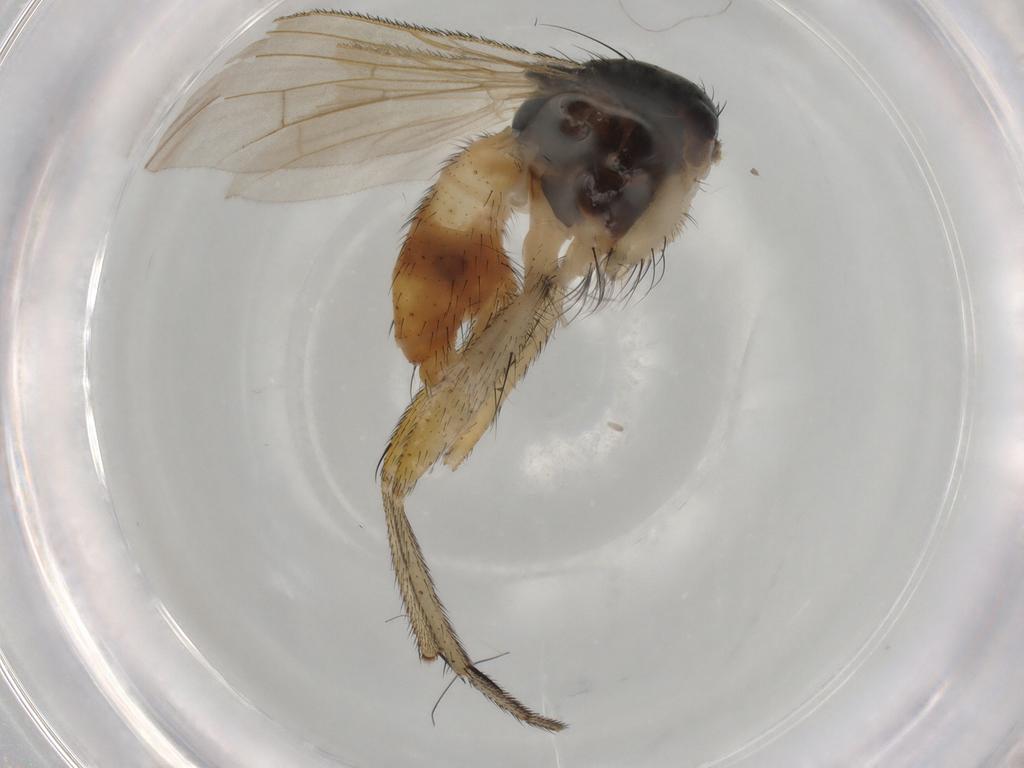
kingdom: Animalia
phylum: Arthropoda
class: Insecta
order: Diptera
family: Muscidae
